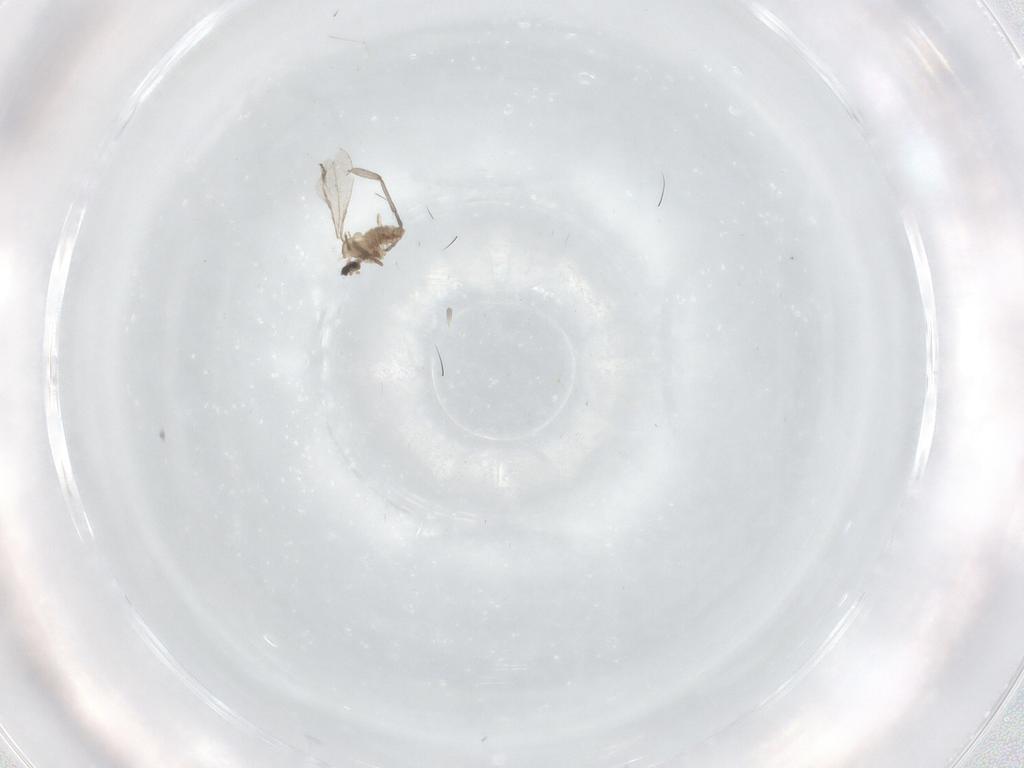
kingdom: Animalia
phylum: Arthropoda
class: Insecta
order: Diptera
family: Sciaridae
